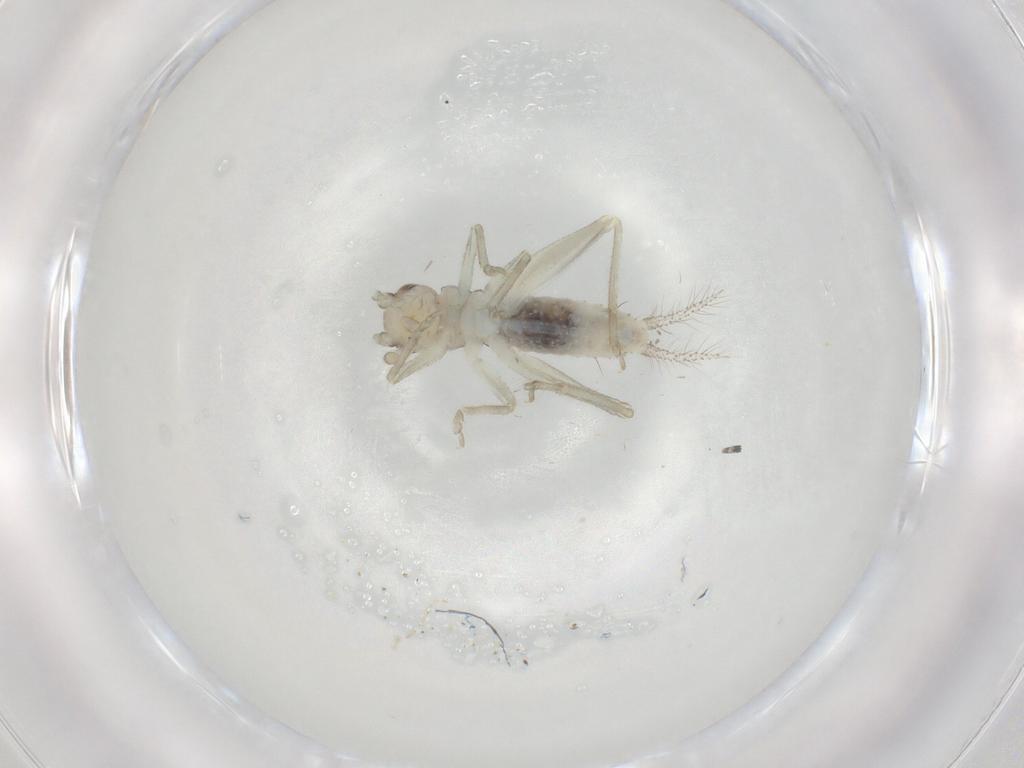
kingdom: Animalia
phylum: Arthropoda
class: Insecta
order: Orthoptera
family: Gryllidae
